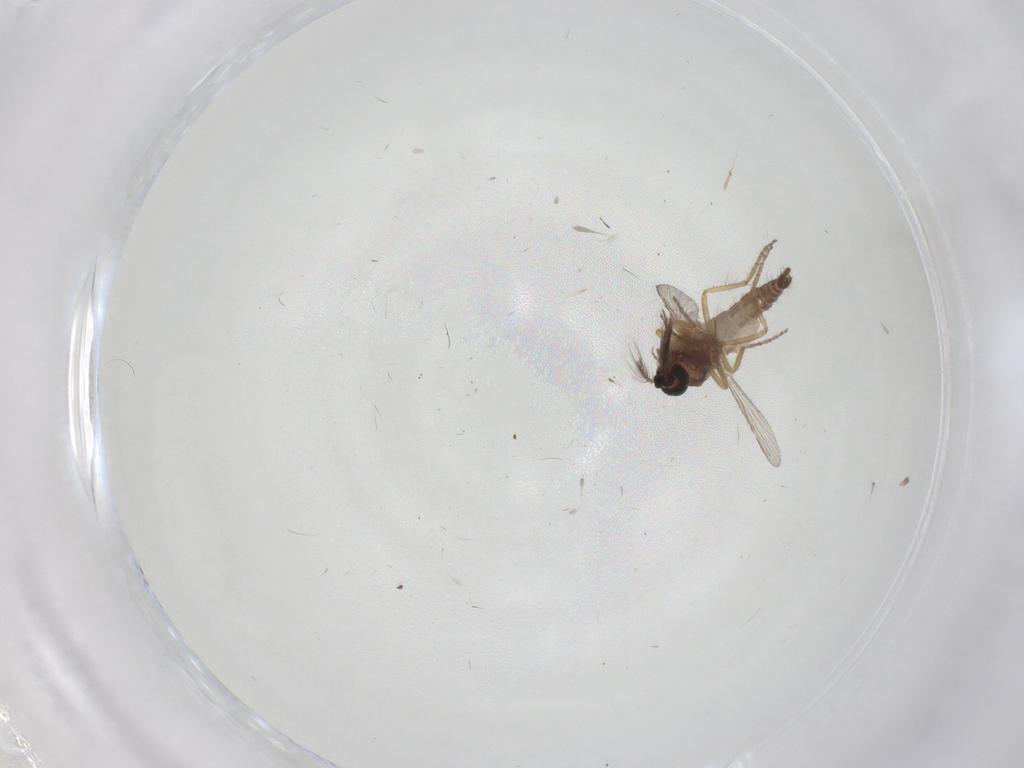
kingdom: Animalia
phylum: Arthropoda
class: Insecta
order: Diptera
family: Ceratopogonidae
